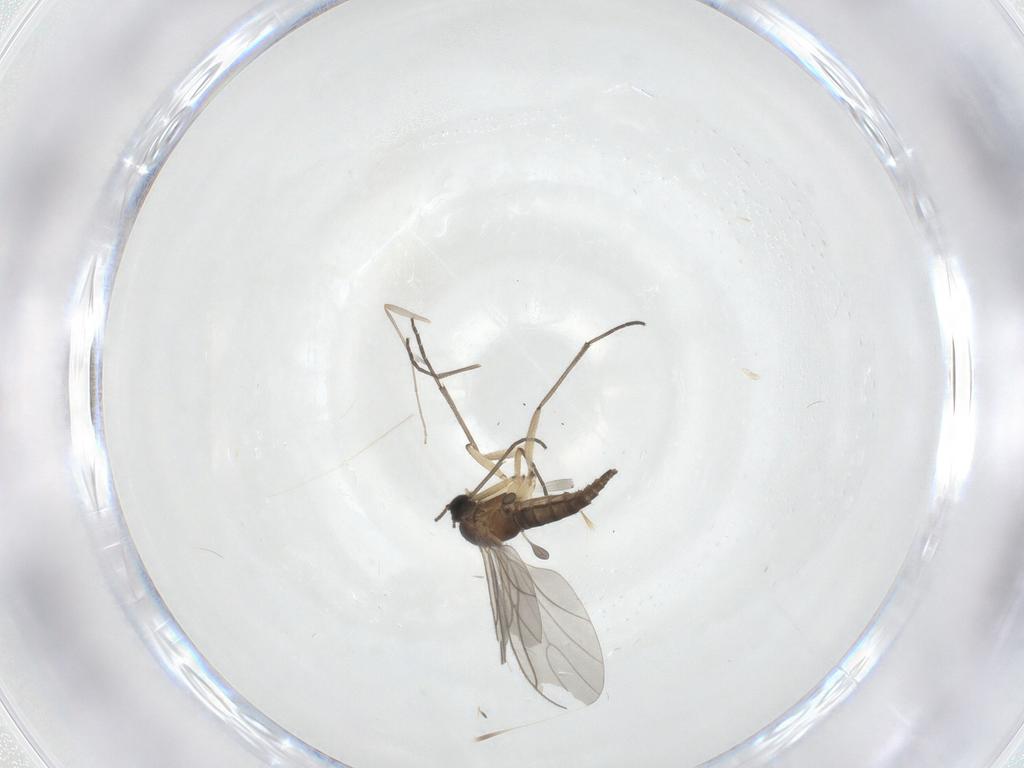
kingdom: Animalia
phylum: Arthropoda
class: Insecta
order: Diptera
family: Sciaridae
